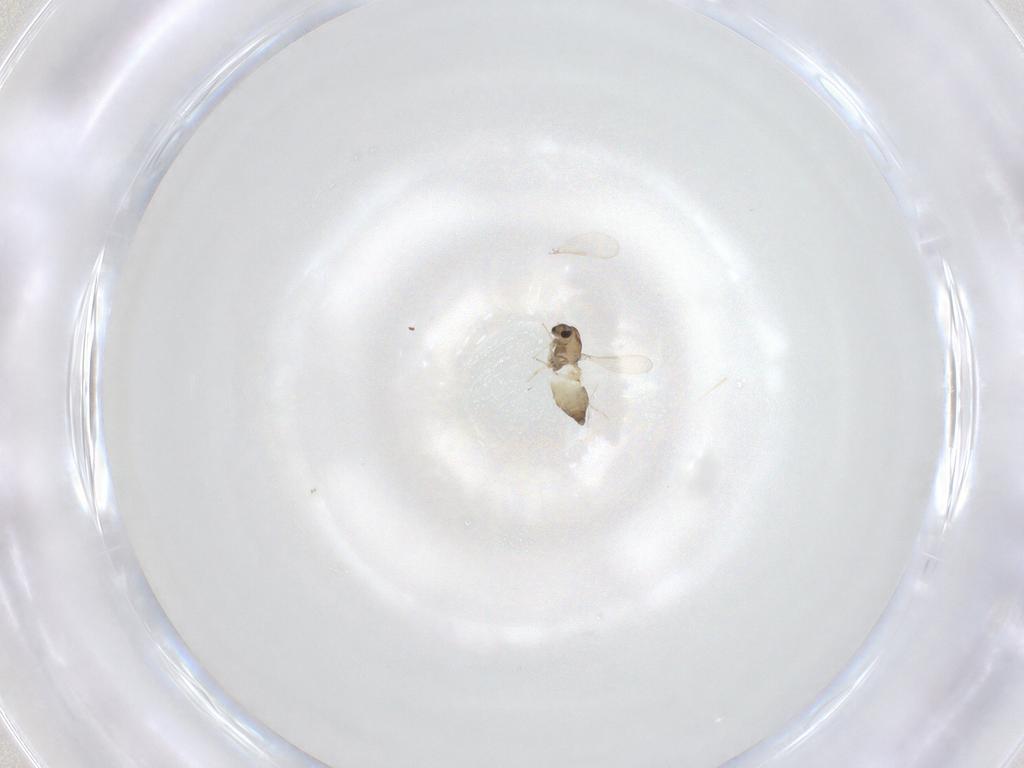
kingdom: Animalia
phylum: Arthropoda
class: Insecta
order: Diptera
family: Chironomidae
